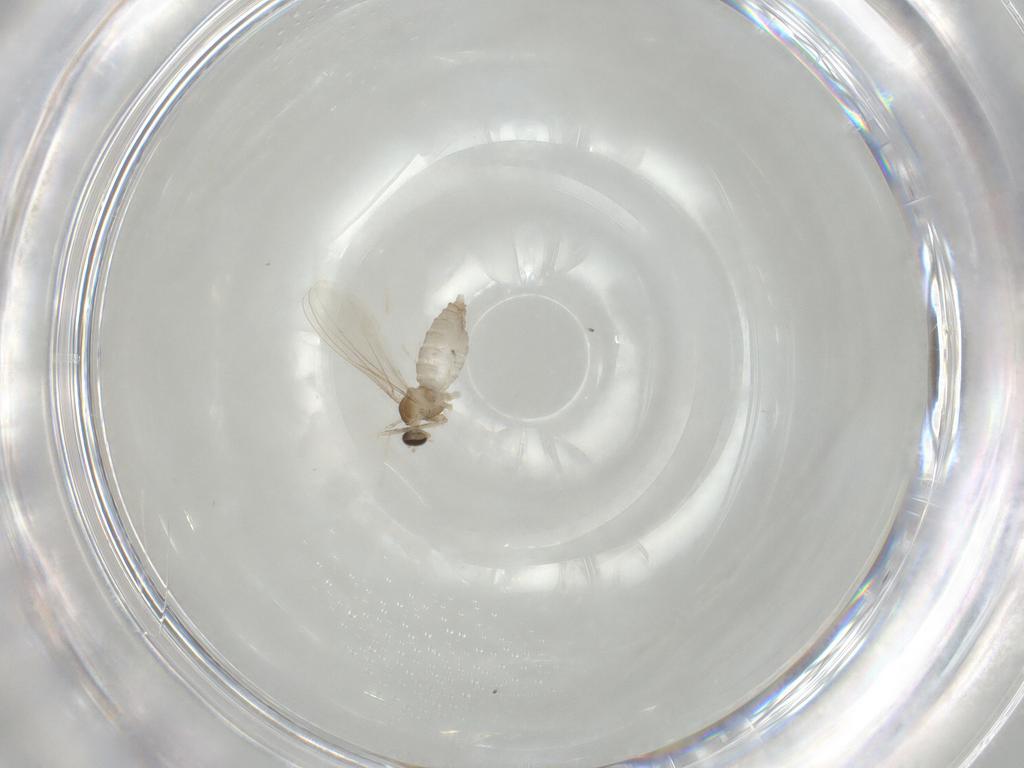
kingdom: Animalia
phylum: Arthropoda
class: Insecta
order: Diptera
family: Cecidomyiidae
